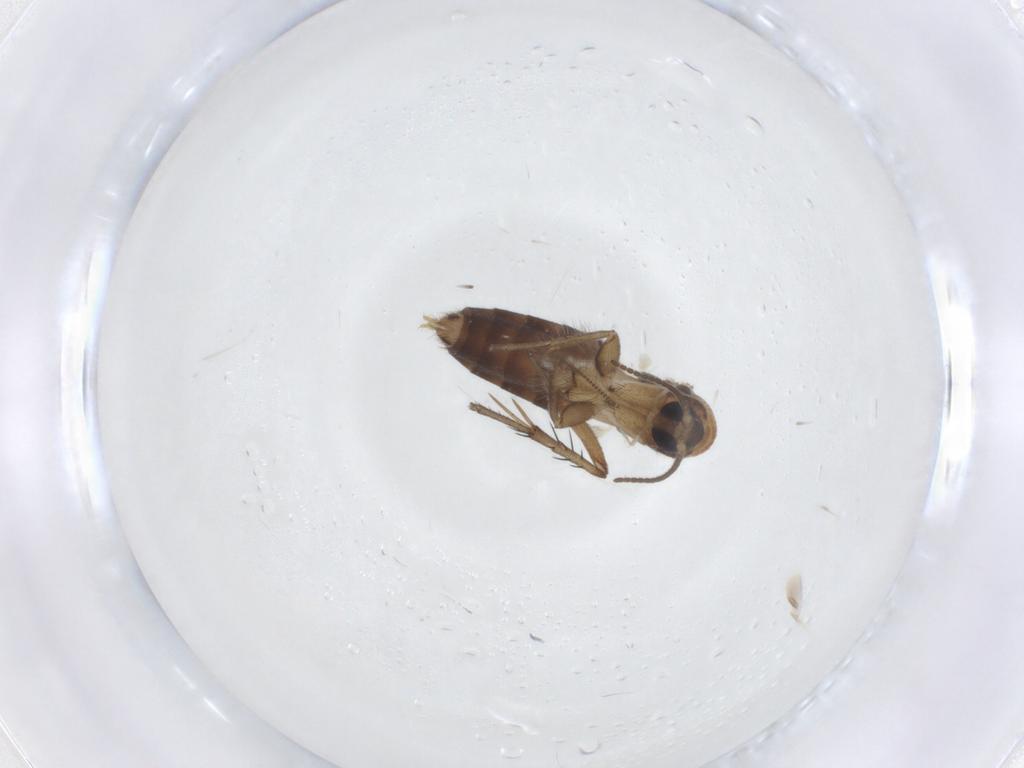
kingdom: Animalia
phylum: Arthropoda
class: Insecta
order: Diptera
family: Mycetophilidae
